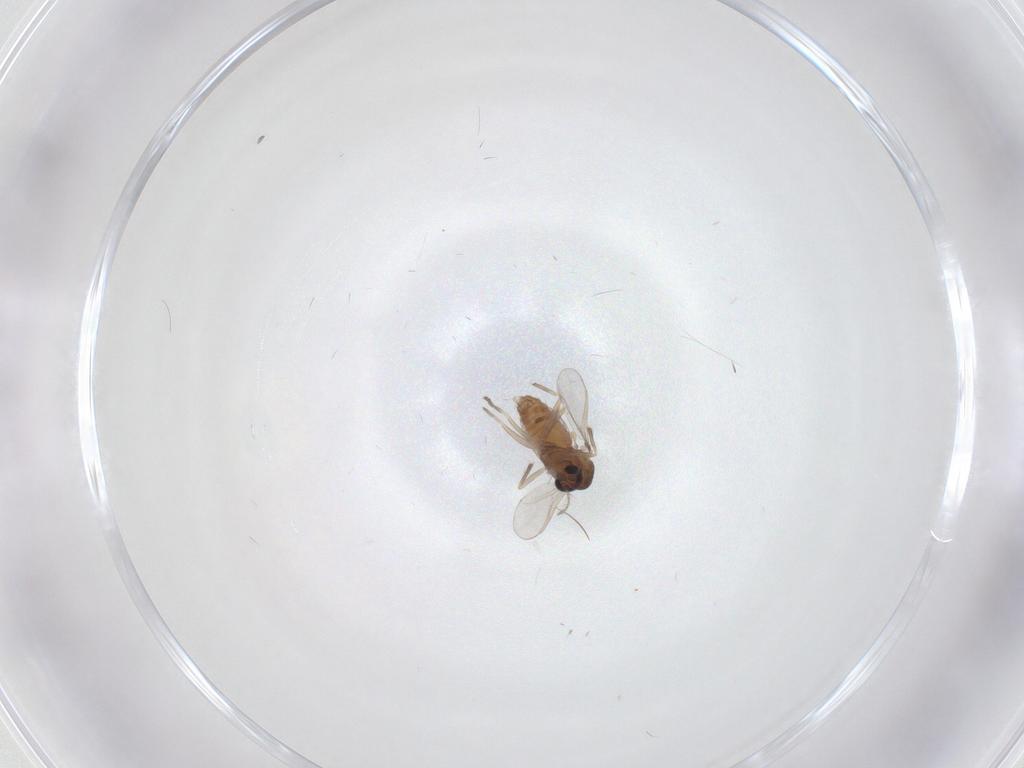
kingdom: Animalia
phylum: Arthropoda
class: Insecta
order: Diptera
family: Chironomidae
